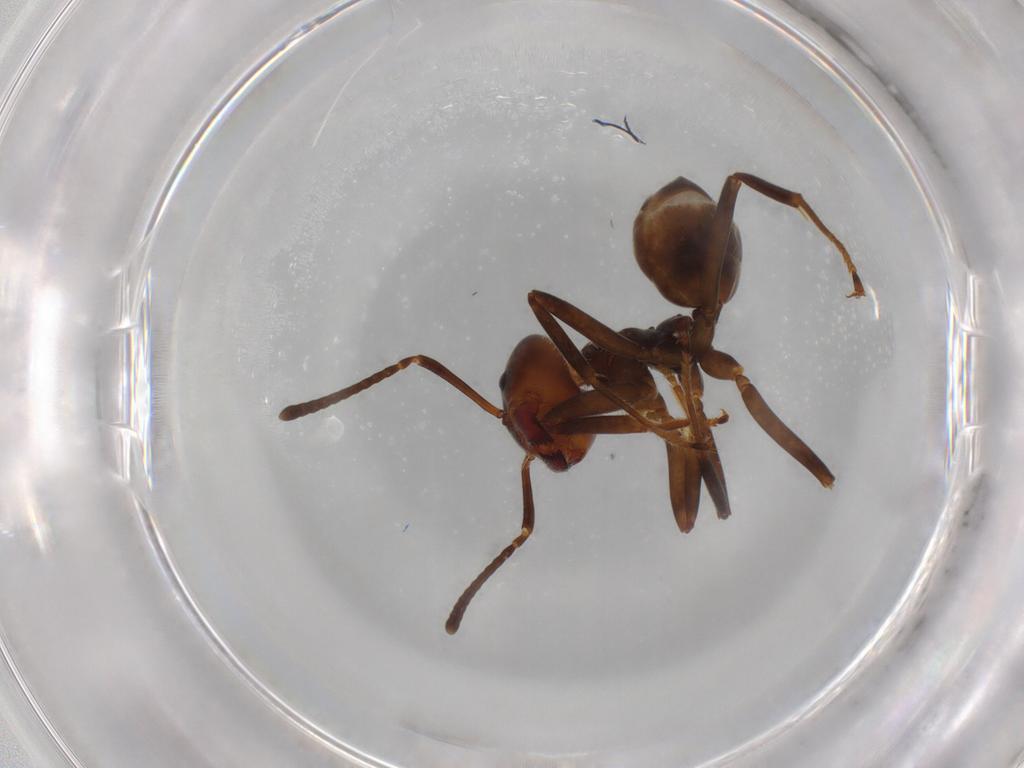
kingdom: Animalia
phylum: Arthropoda
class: Insecta
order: Hymenoptera
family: Formicidae
